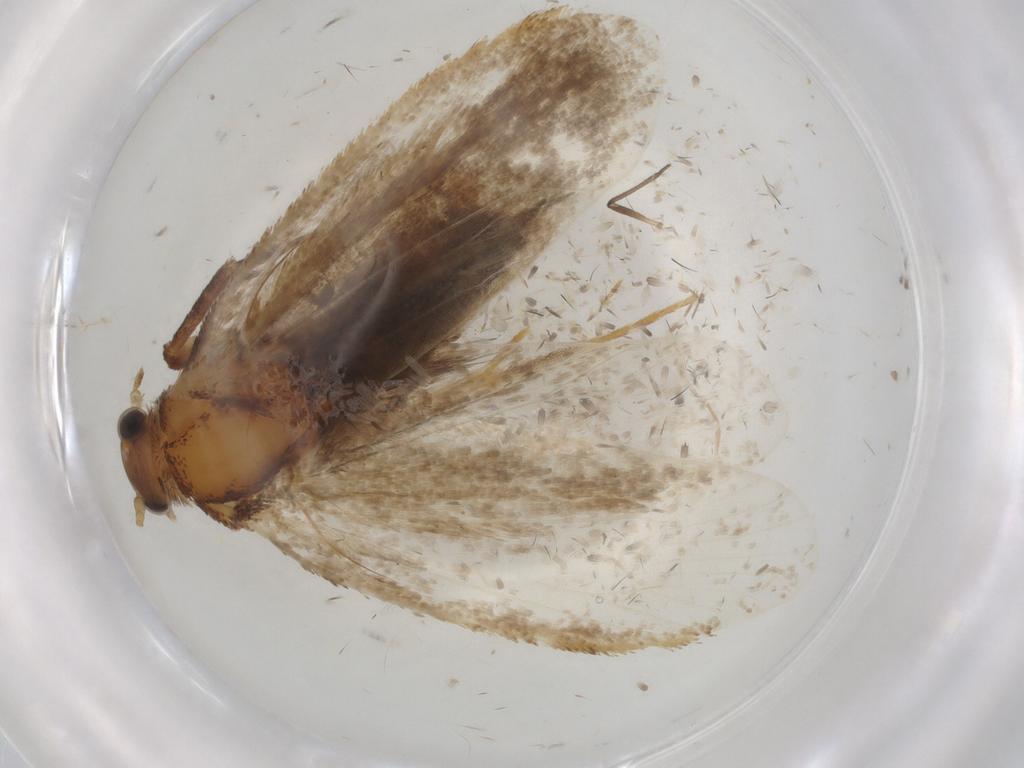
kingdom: Animalia
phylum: Arthropoda
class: Insecta
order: Lepidoptera
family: Nepticulidae
